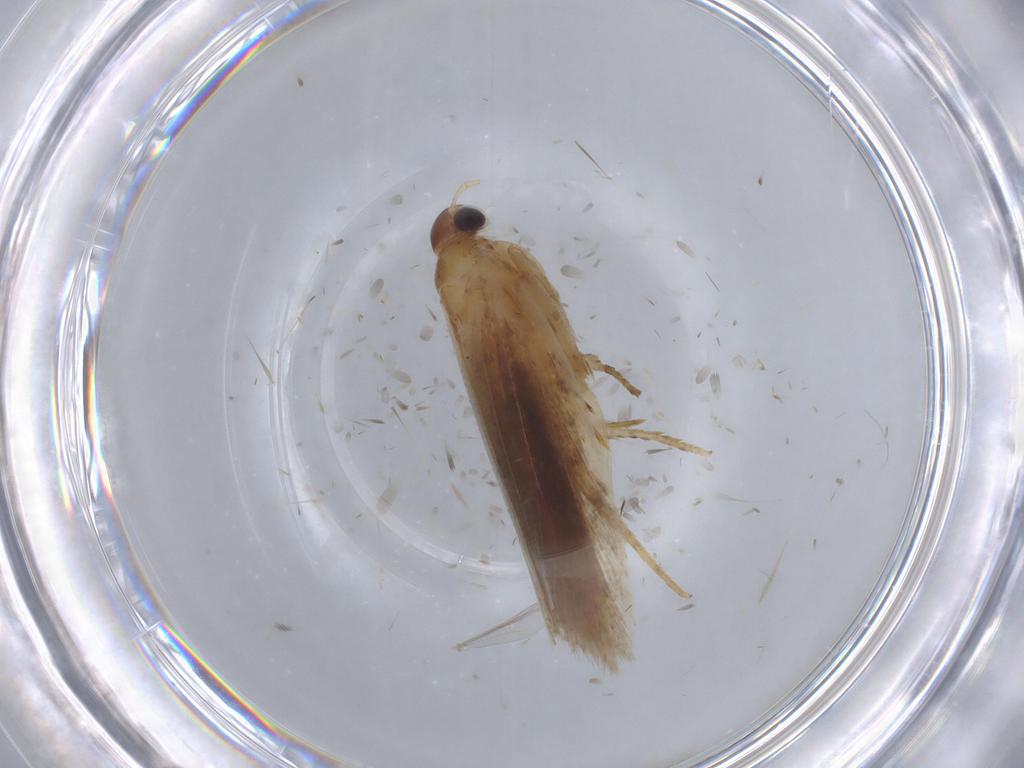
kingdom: Animalia
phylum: Arthropoda
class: Insecta
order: Lepidoptera
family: Gelechiidae
